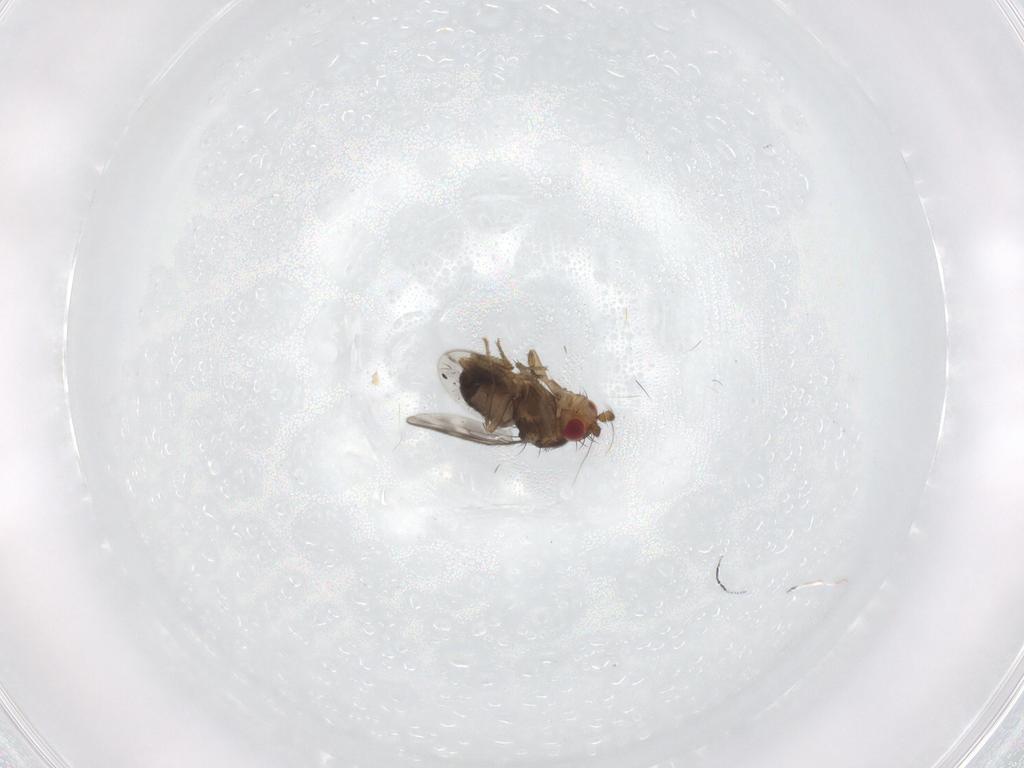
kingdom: Animalia
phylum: Arthropoda
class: Insecta
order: Diptera
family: Sphaeroceridae
